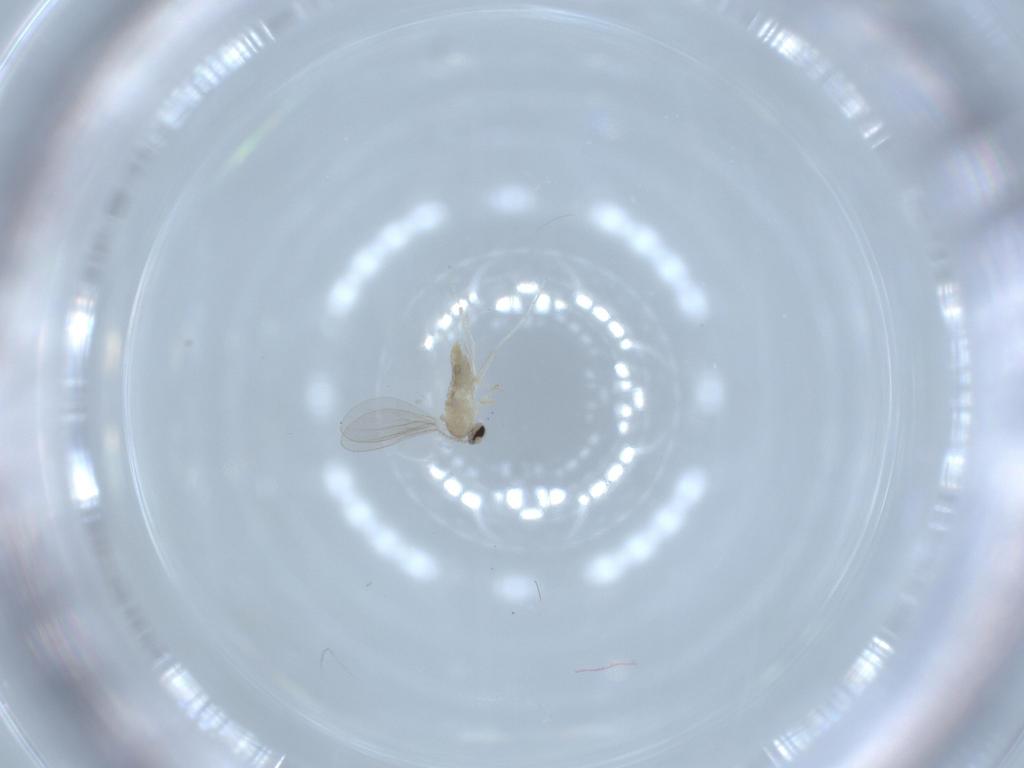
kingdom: Animalia
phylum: Arthropoda
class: Insecta
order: Diptera
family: Cecidomyiidae
